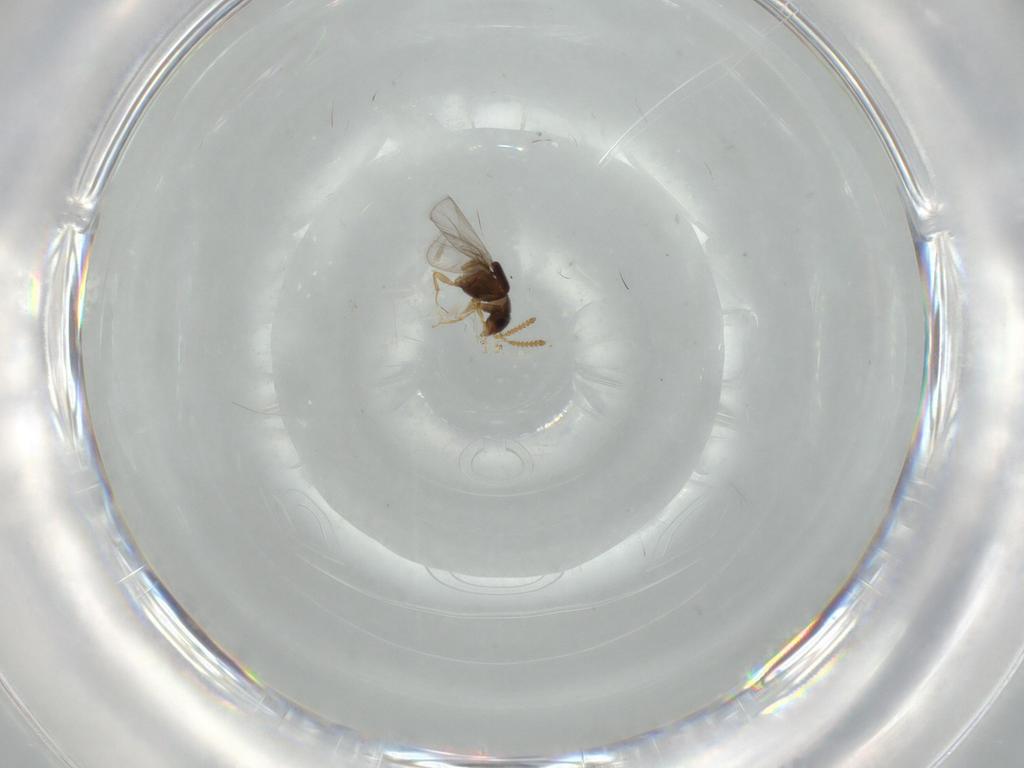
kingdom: Animalia
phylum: Arthropoda
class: Insecta
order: Diptera
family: Cecidomyiidae
